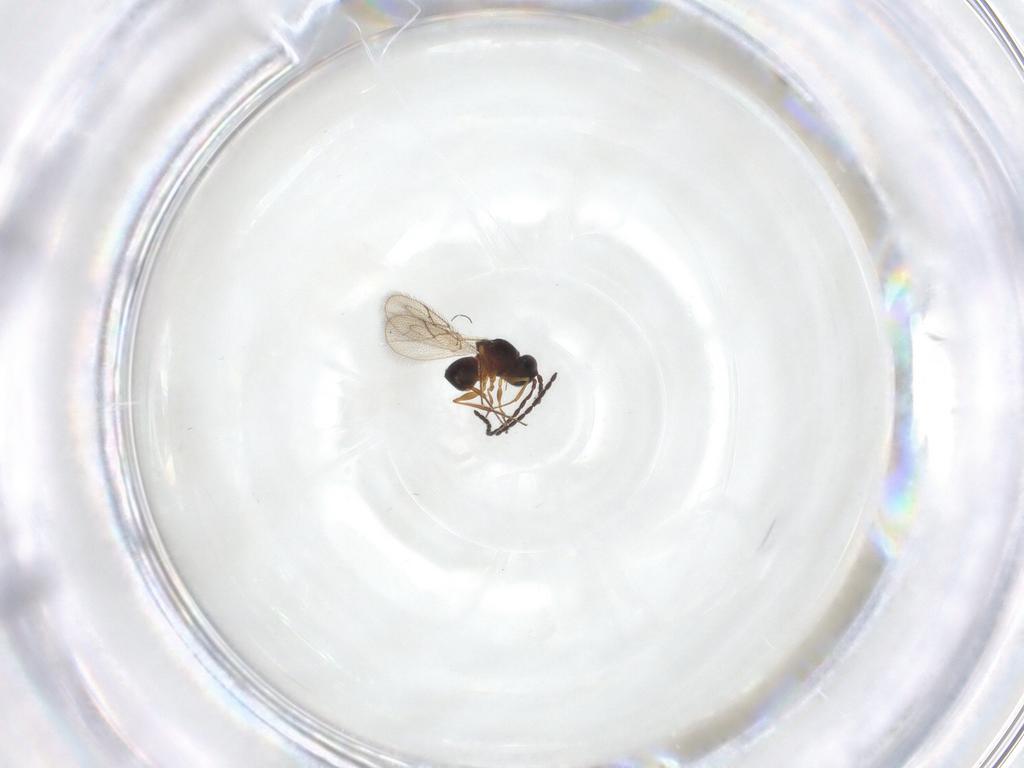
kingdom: Animalia
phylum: Arthropoda
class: Insecta
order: Hymenoptera
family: Figitidae
